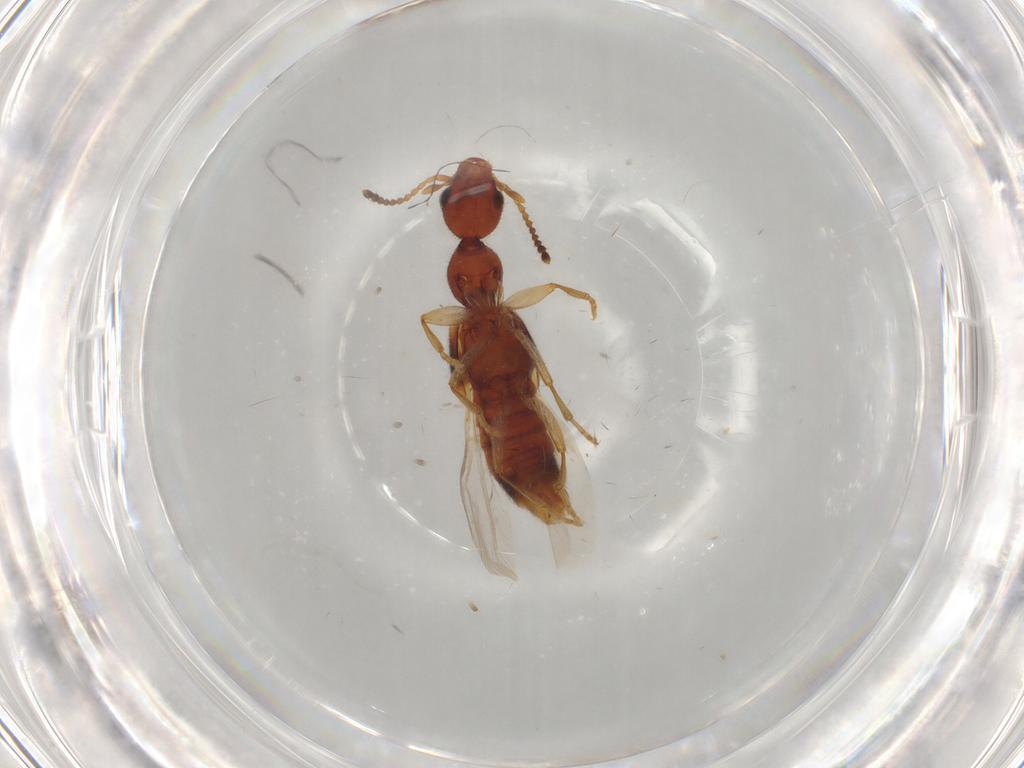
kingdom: Animalia
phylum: Arthropoda
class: Insecta
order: Coleoptera
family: Staphylinidae
